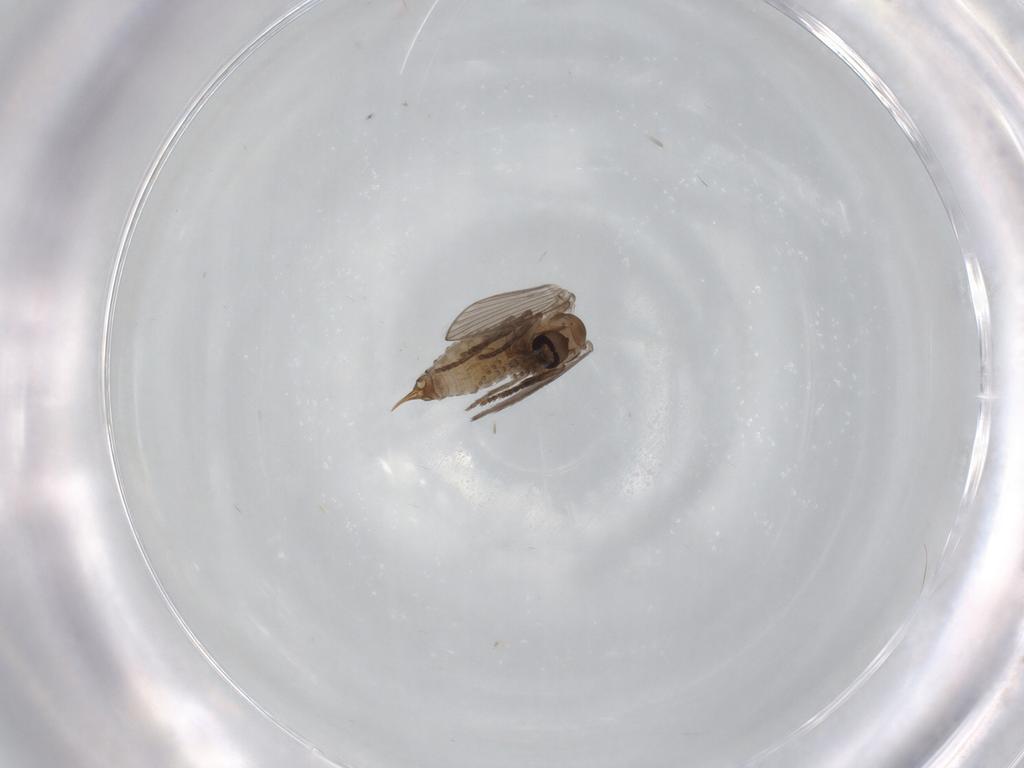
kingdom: Animalia
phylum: Arthropoda
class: Insecta
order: Diptera
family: Psychodidae
